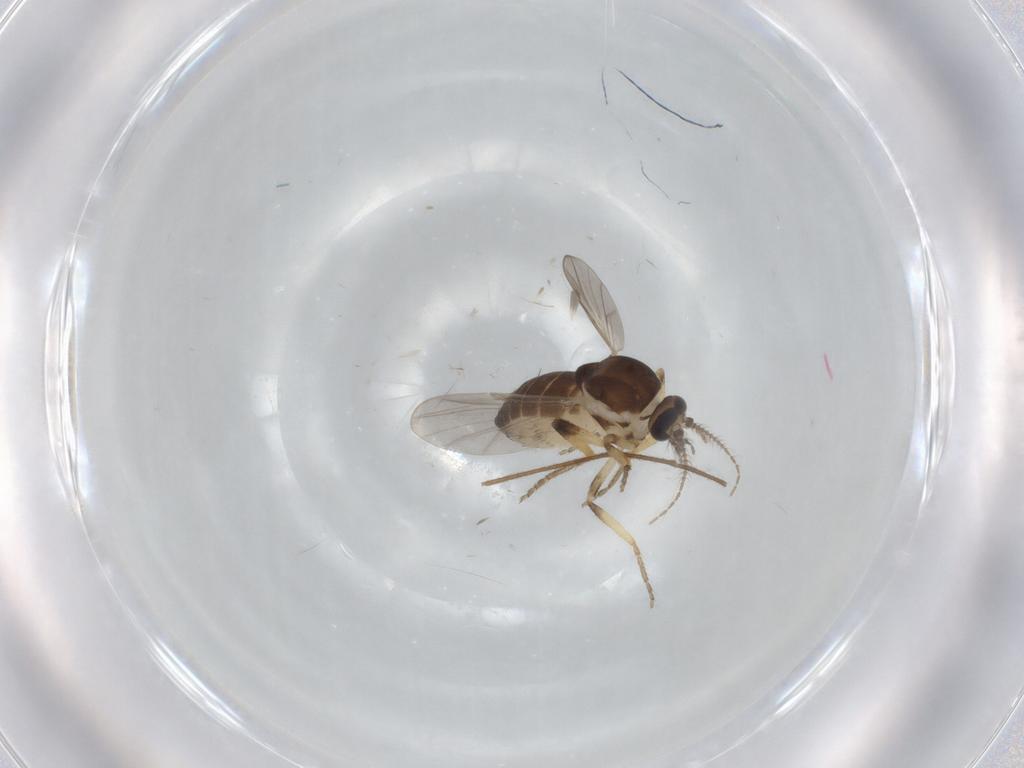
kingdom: Animalia
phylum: Arthropoda
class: Insecta
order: Diptera
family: Ceratopogonidae
